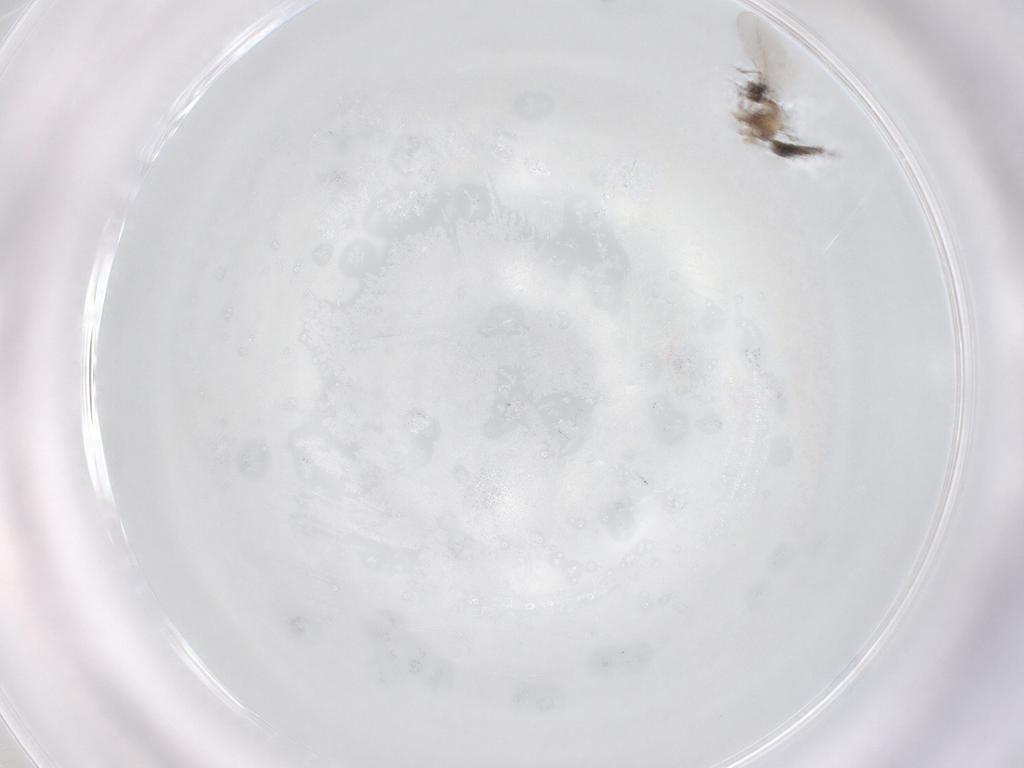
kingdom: Animalia
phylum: Arthropoda
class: Insecta
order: Diptera
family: Cecidomyiidae
